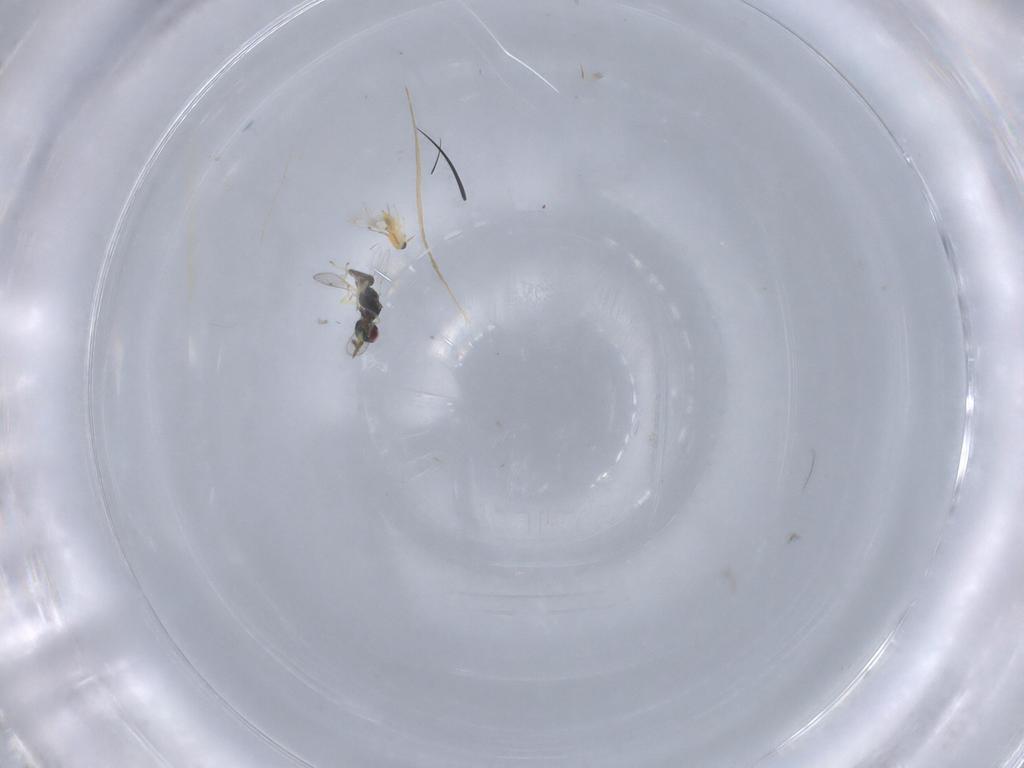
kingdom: Animalia
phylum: Arthropoda
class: Insecta
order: Hymenoptera
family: Eulophidae
